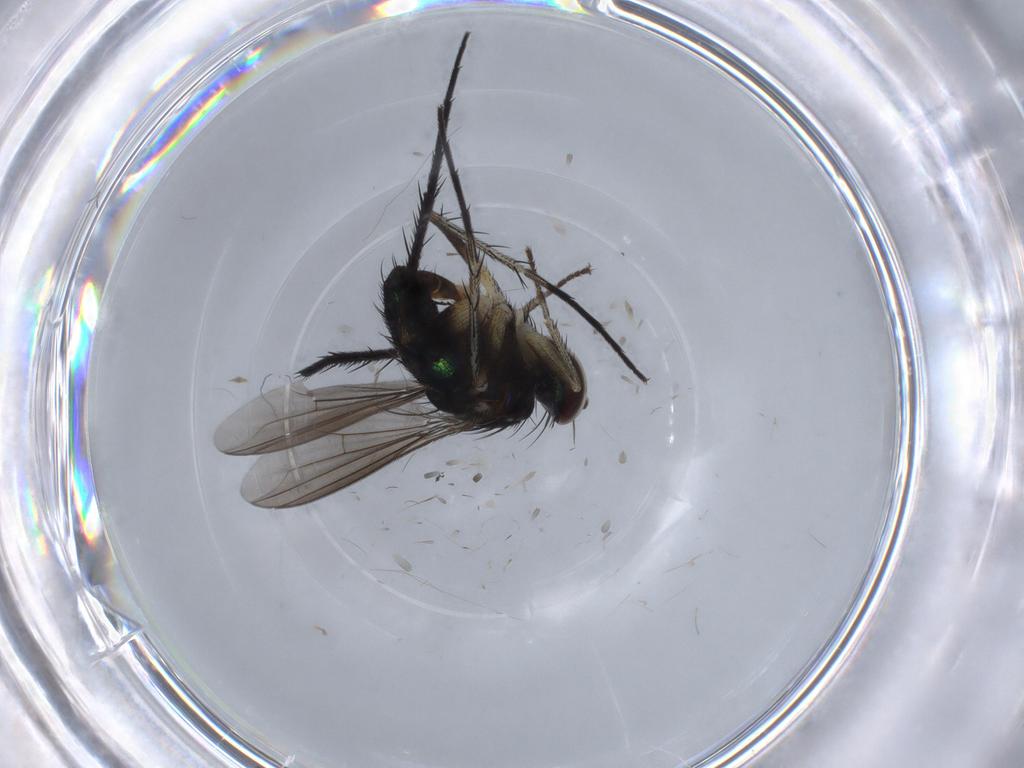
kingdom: Animalia
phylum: Arthropoda
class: Insecta
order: Diptera
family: Dolichopodidae
